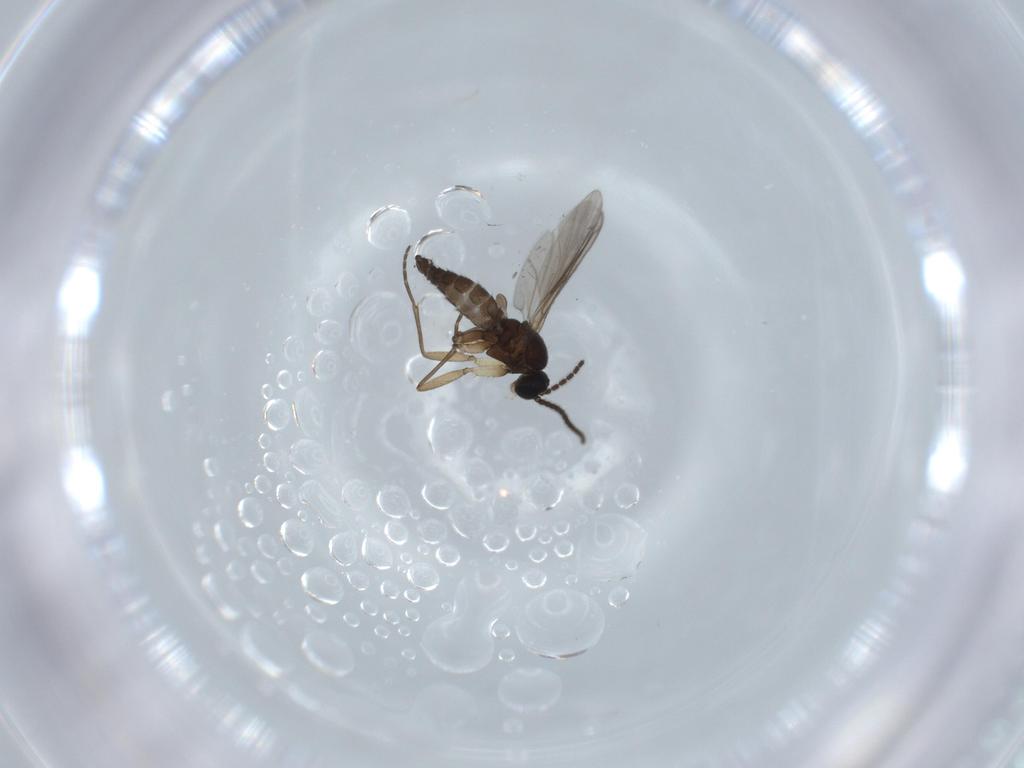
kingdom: Animalia
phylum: Arthropoda
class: Insecta
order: Diptera
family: Sciaridae
